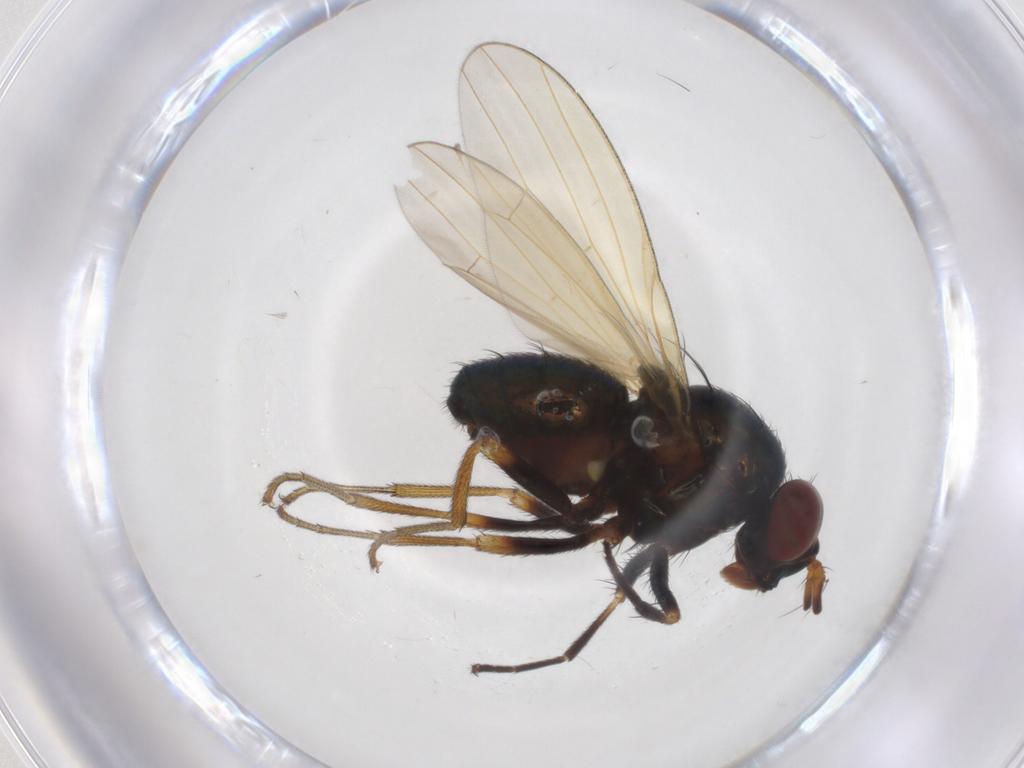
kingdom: Animalia
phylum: Arthropoda
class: Insecta
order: Diptera
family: Lauxaniidae
